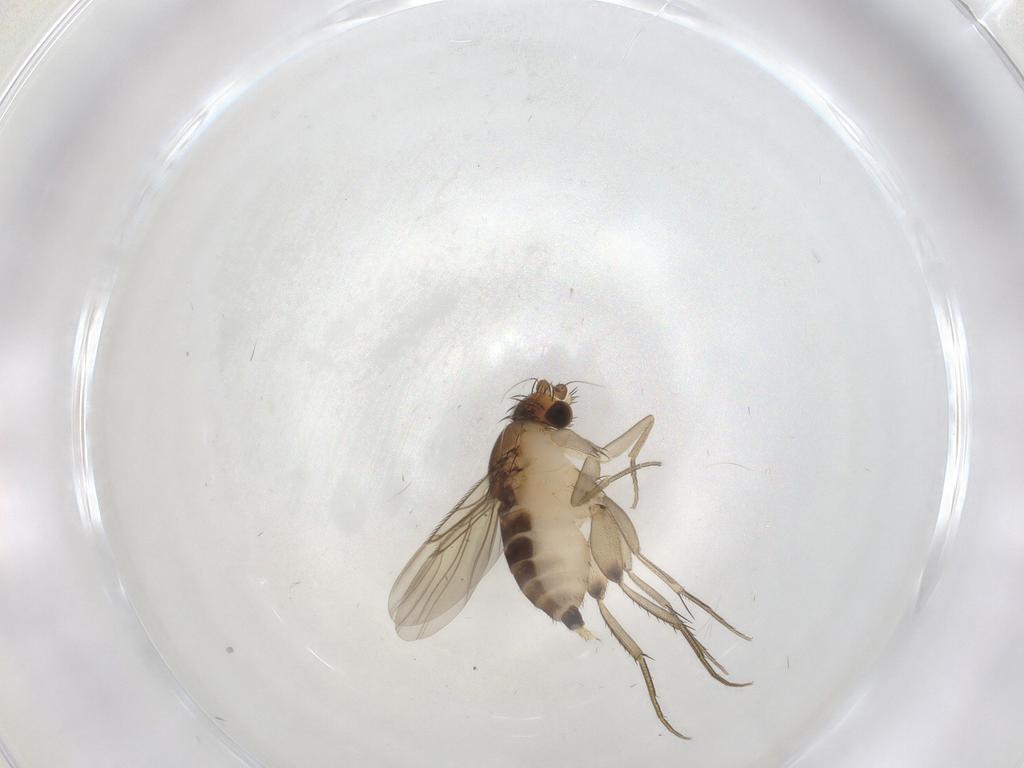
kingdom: Animalia
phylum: Arthropoda
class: Insecta
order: Diptera
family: Phoridae
